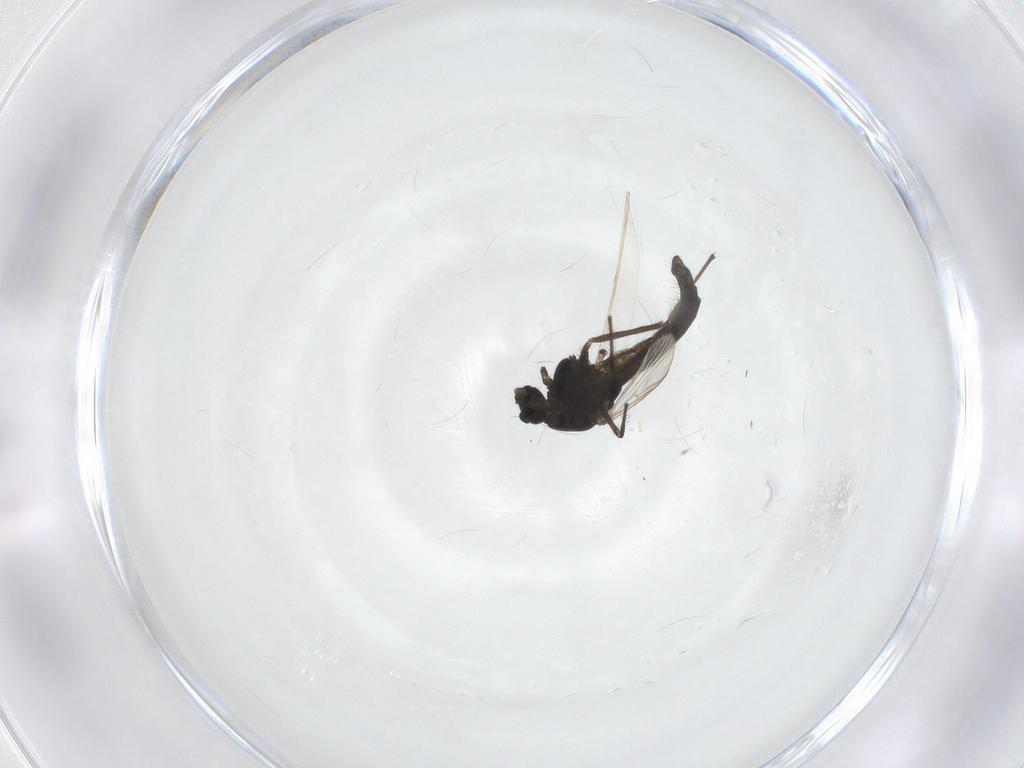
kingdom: Animalia
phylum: Arthropoda
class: Insecta
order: Diptera
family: Chironomidae
